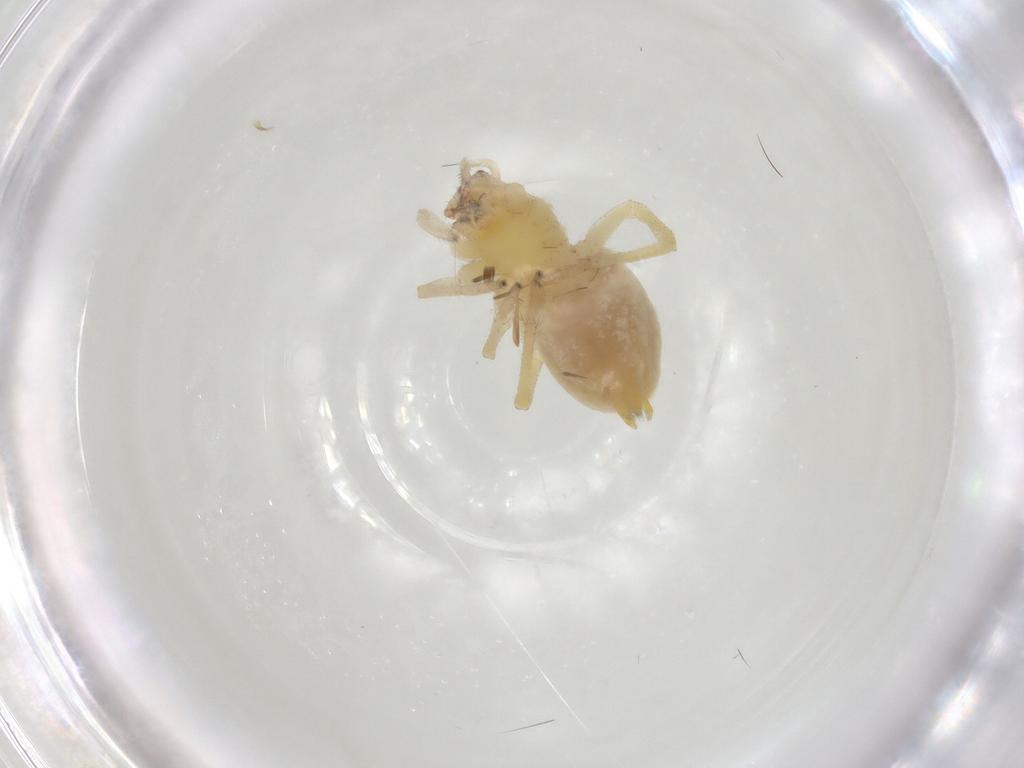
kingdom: Animalia
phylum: Arthropoda
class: Arachnida
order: Araneae
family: Cheiracanthiidae
